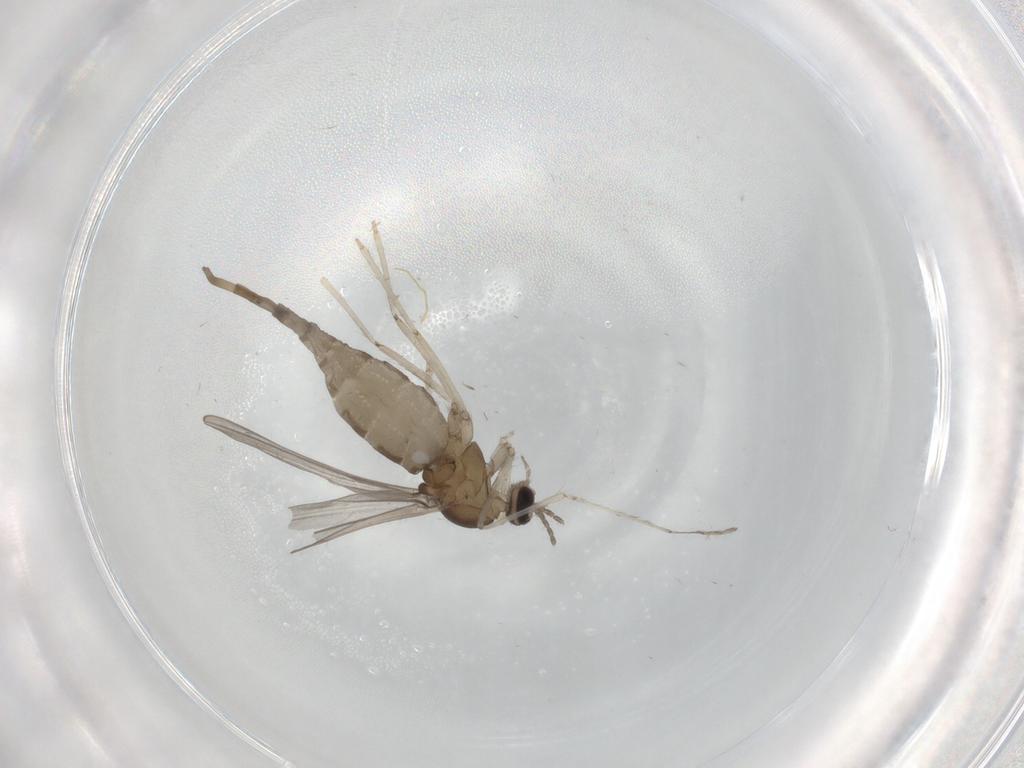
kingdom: Animalia
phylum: Arthropoda
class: Insecta
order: Diptera
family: Cecidomyiidae
